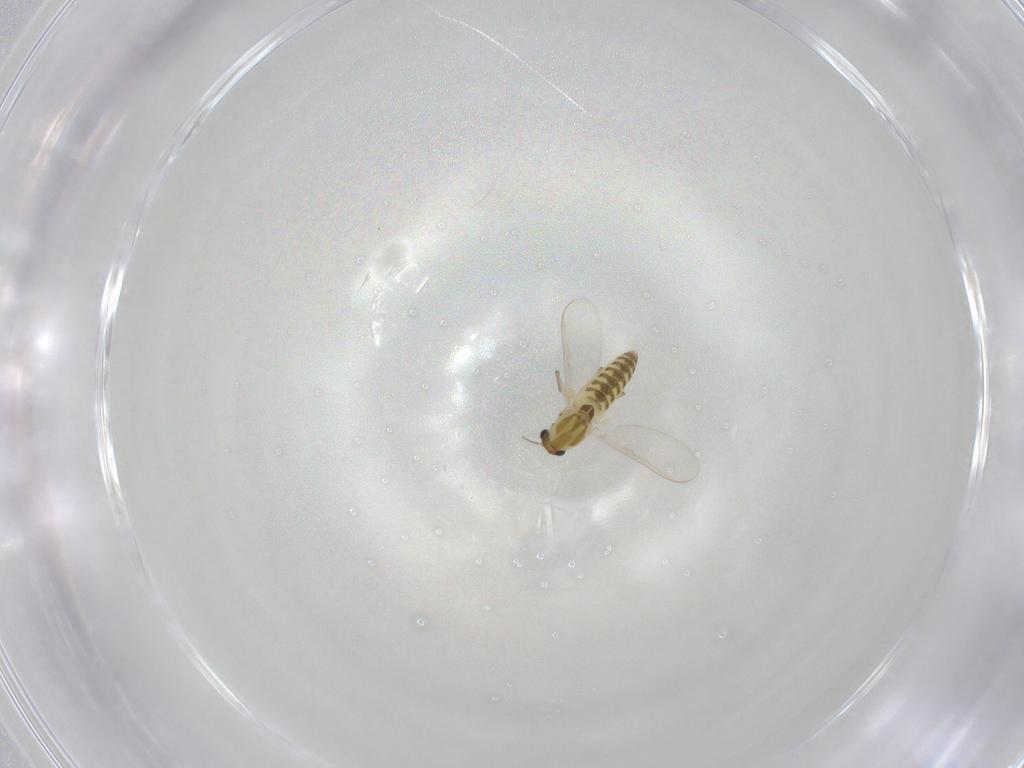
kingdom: Animalia
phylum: Arthropoda
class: Insecta
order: Diptera
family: Chironomidae
